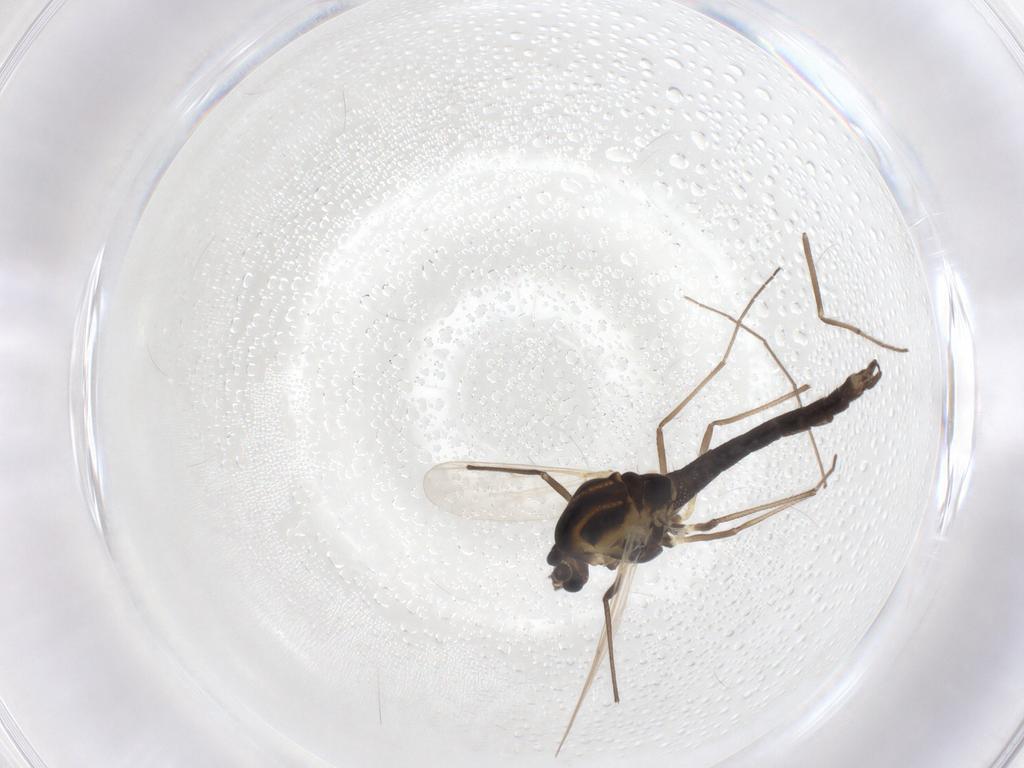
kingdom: Animalia
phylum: Arthropoda
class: Insecta
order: Diptera
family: Chironomidae
